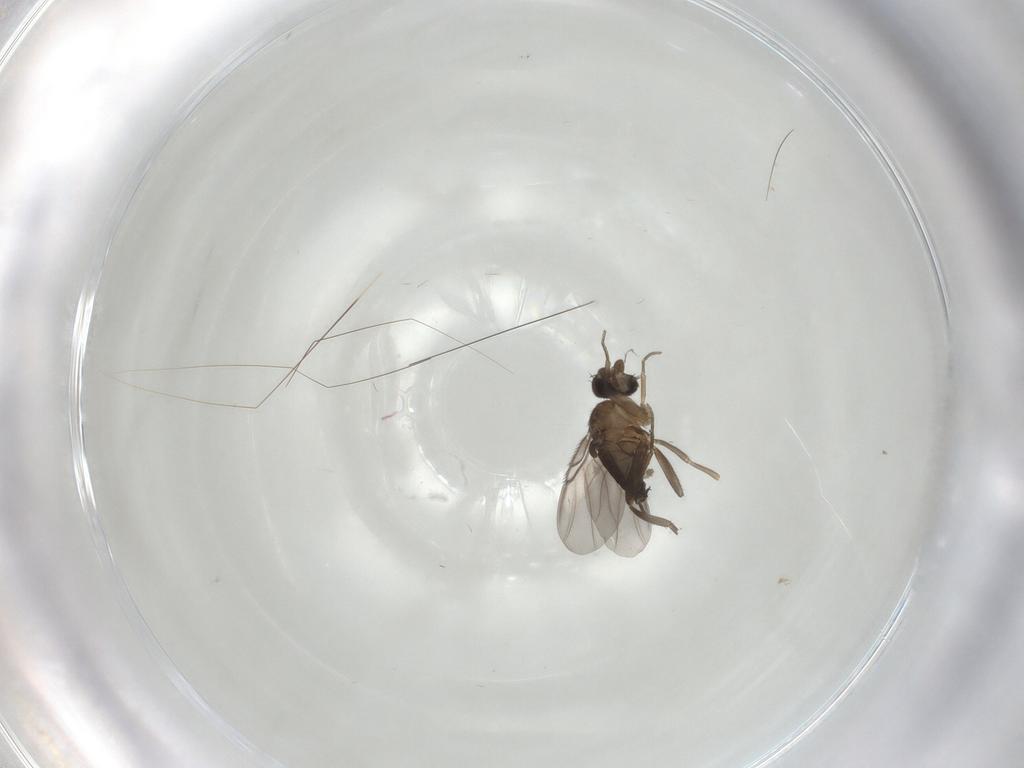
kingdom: Animalia
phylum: Arthropoda
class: Insecta
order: Diptera
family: Phoridae
